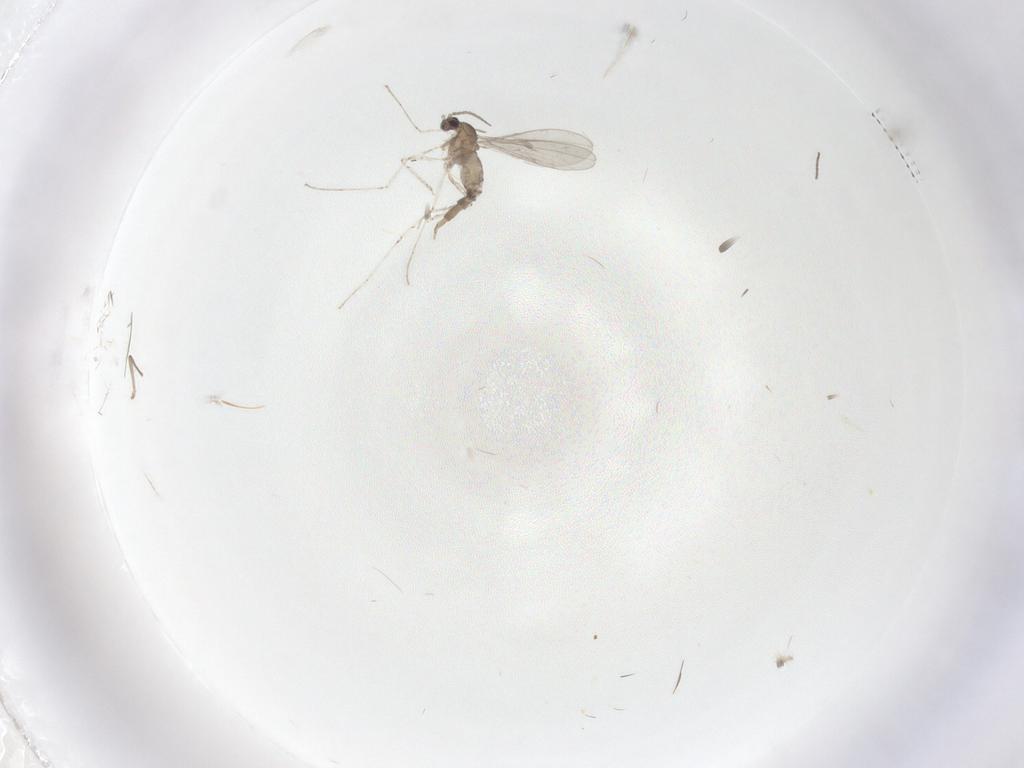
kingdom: Animalia
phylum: Arthropoda
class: Insecta
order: Diptera
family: Cecidomyiidae
